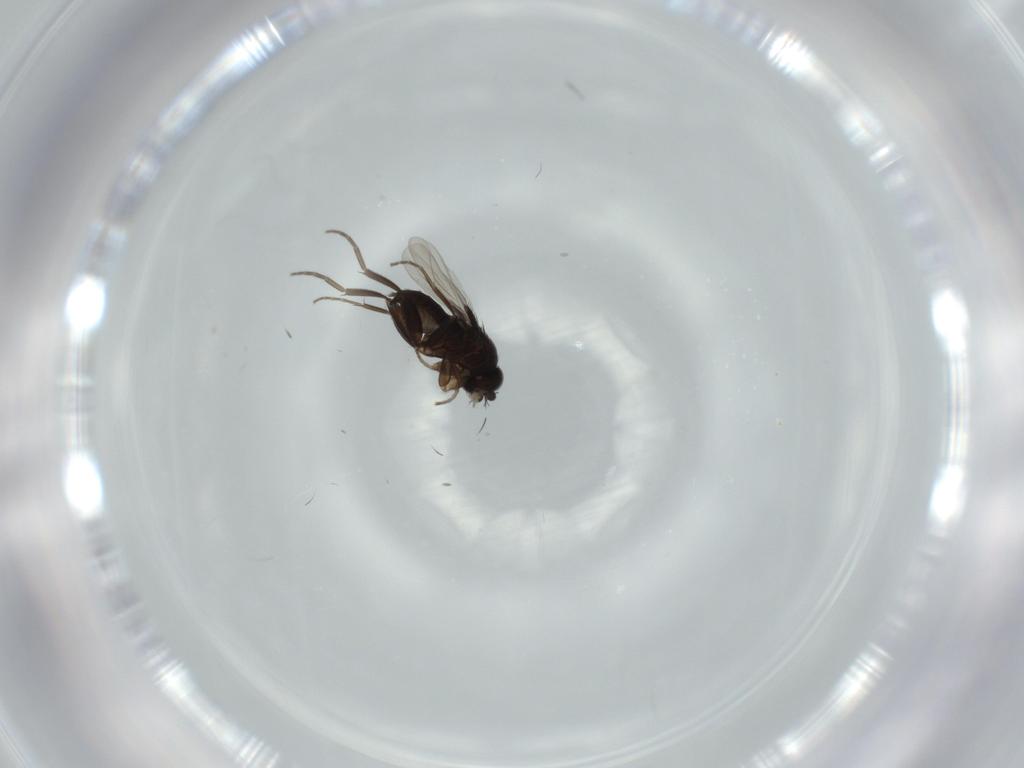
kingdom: Animalia
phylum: Arthropoda
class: Insecta
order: Diptera
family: Phoridae
